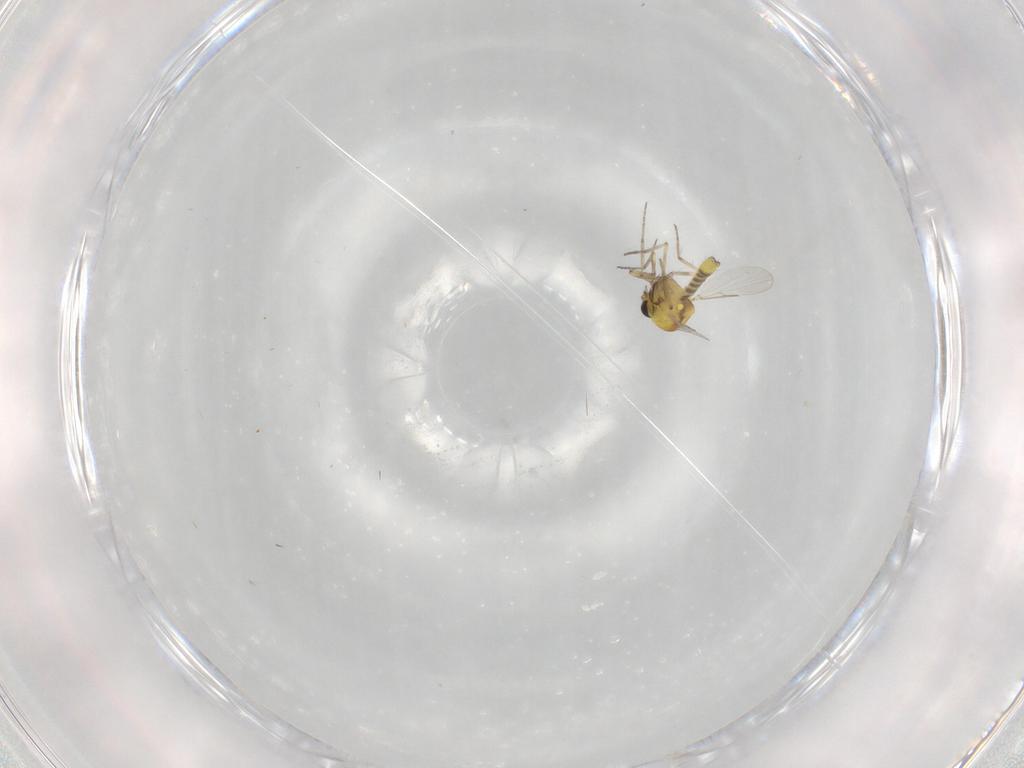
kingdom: Animalia
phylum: Arthropoda
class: Insecta
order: Diptera
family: Ceratopogonidae
